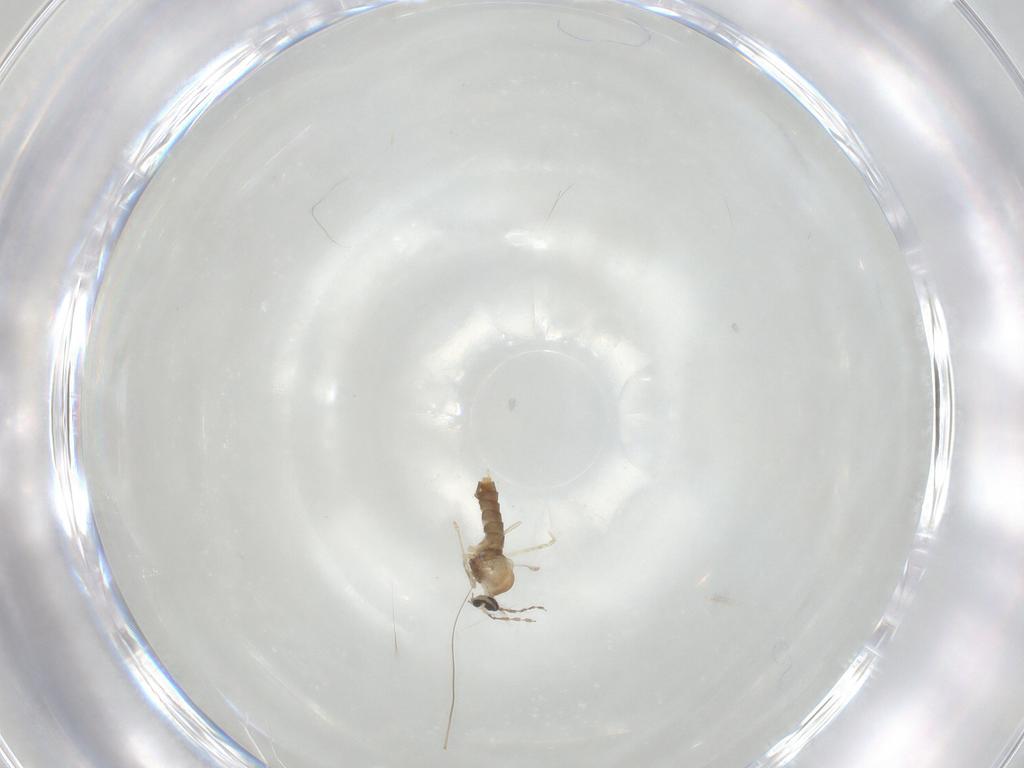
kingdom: Animalia
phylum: Arthropoda
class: Insecta
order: Diptera
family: Cecidomyiidae
